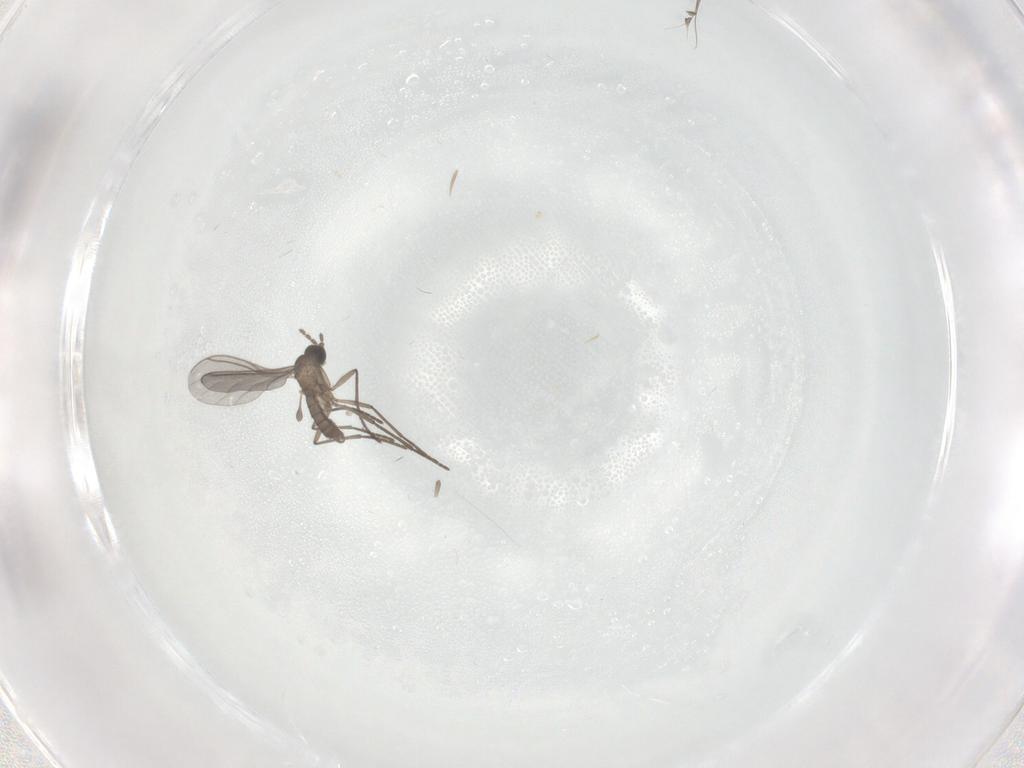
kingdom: Animalia
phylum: Arthropoda
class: Insecta
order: Diptera
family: Sciaridae
